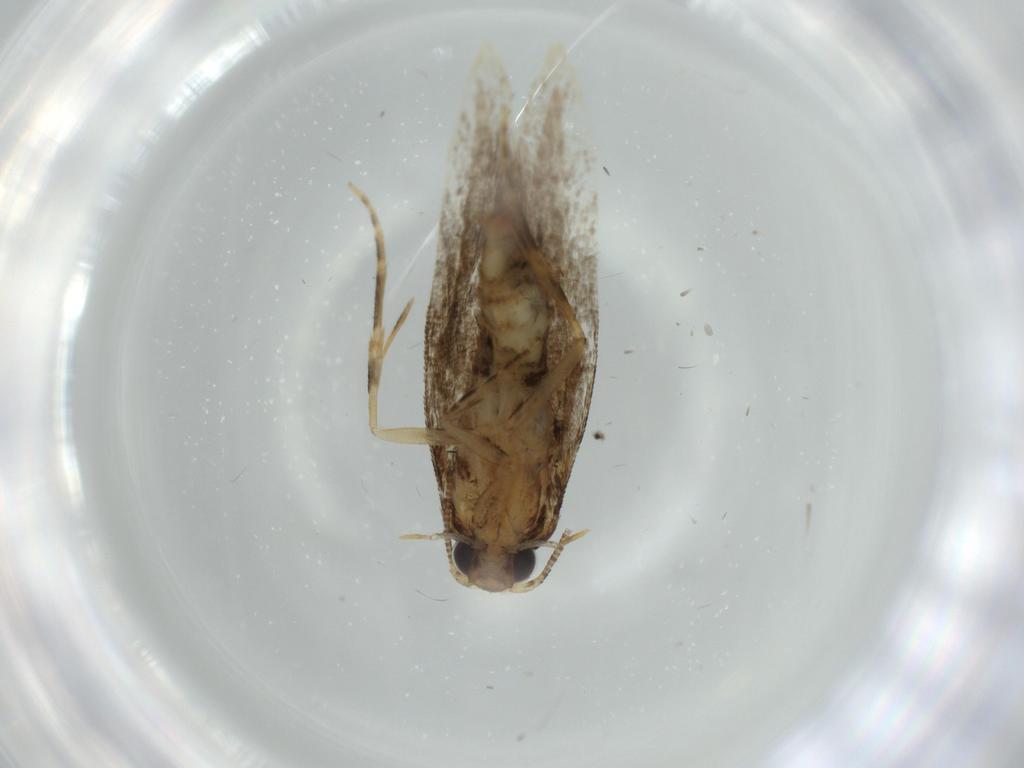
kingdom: Animalia
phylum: Arthropoda
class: Insecta
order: Lepidoptera
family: Tineidae
